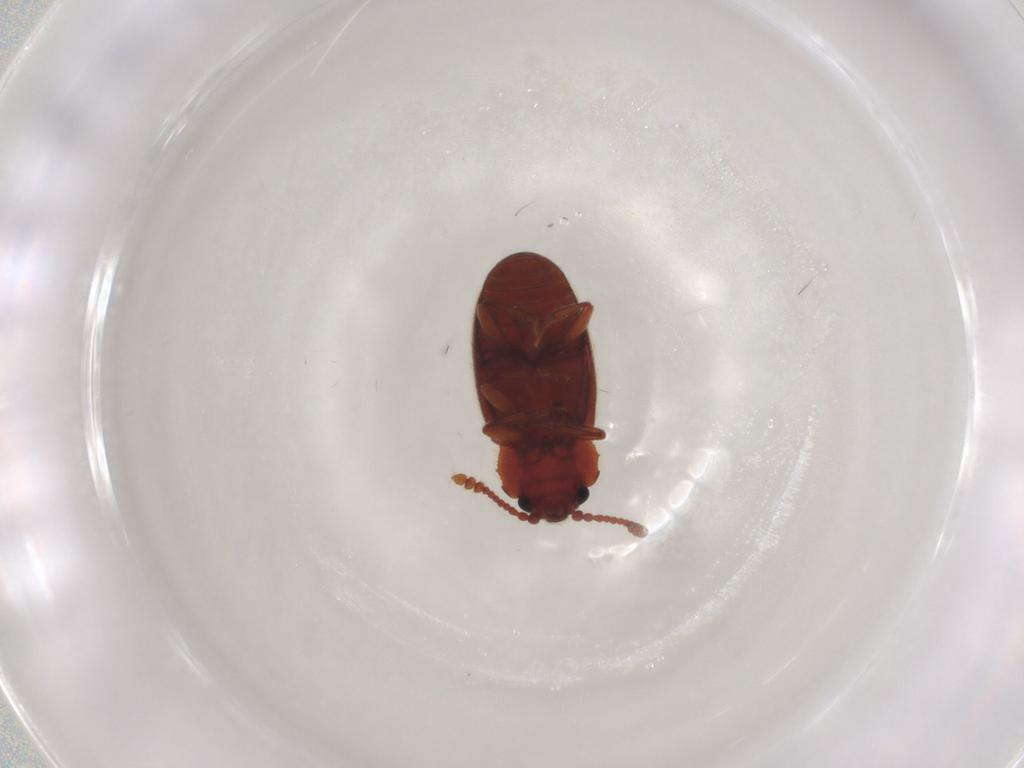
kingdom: Animalia
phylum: Arthropoda
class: Insecta
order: Coleoptera
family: Cryptophagidae
